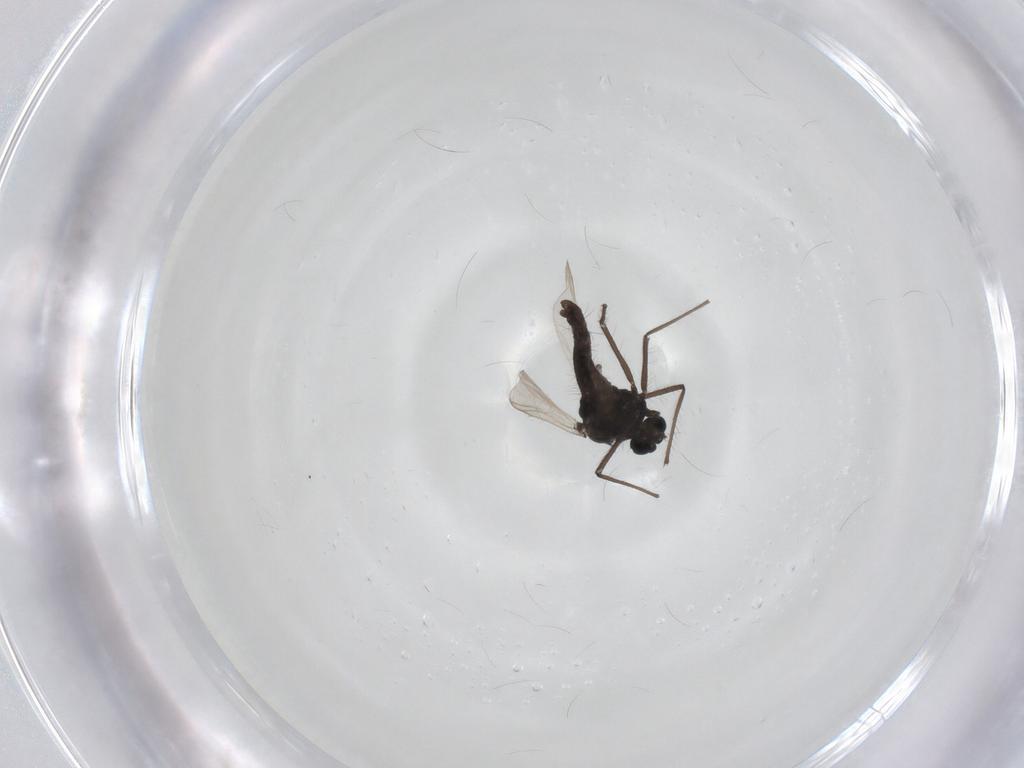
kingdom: Animalia
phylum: Arthropoda
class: Insecta
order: Diptera
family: Chironomidae
